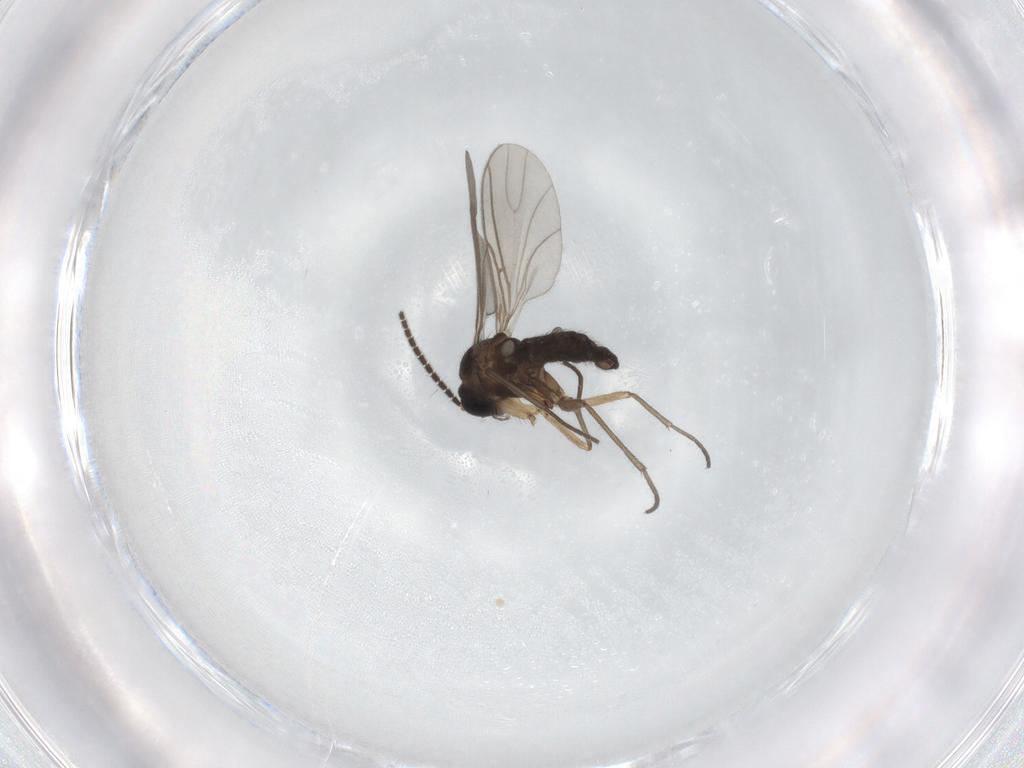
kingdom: Animalia
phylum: Arthropoda
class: Insecta
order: Diptera
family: Sciaridae
